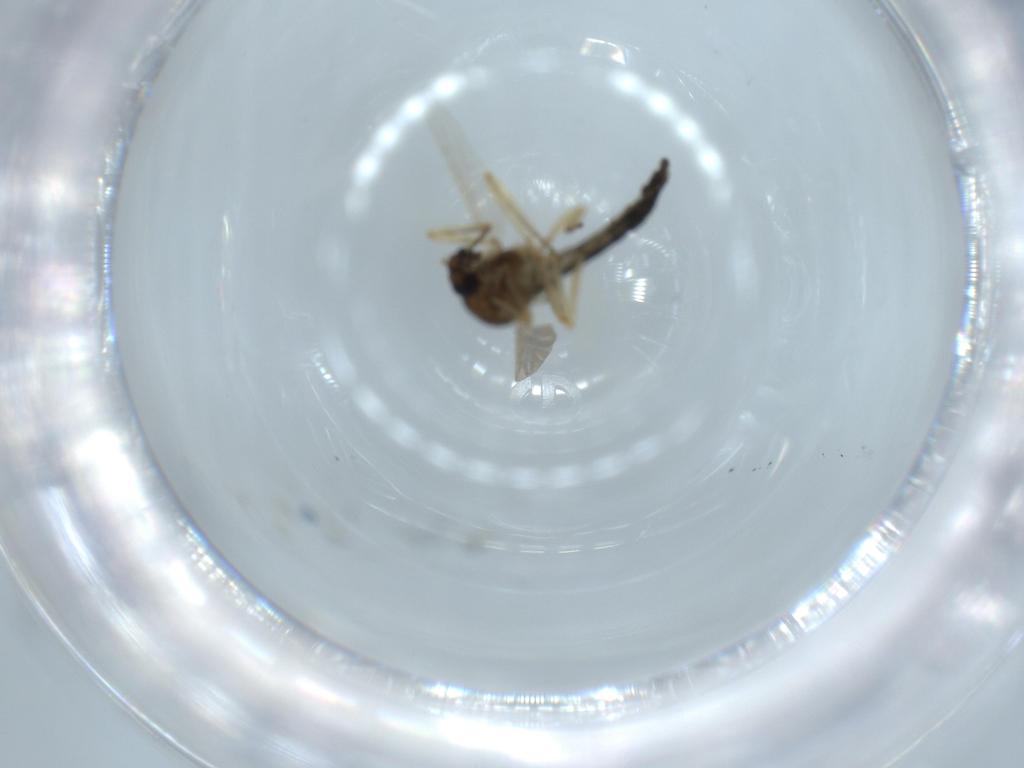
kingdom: Animalia
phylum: Arthropoda
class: Insecta
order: Diptera
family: Ceratopogonidae
